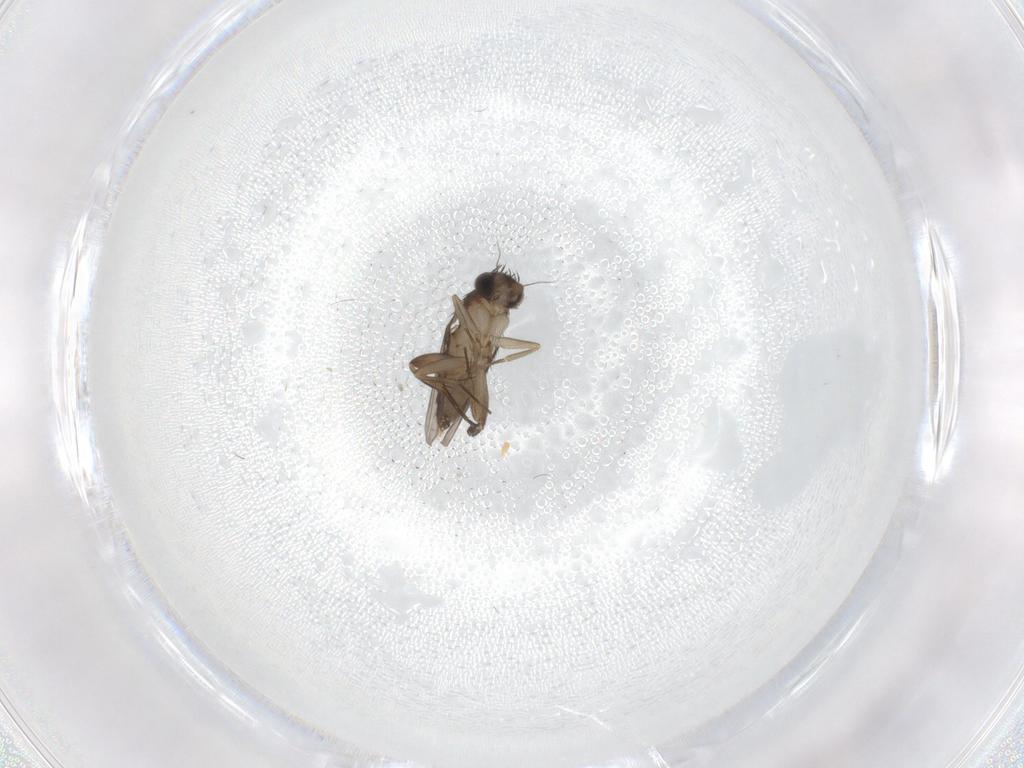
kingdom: Animalia
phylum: Arthropoda
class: Insecta
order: Diptera
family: Phoridae
